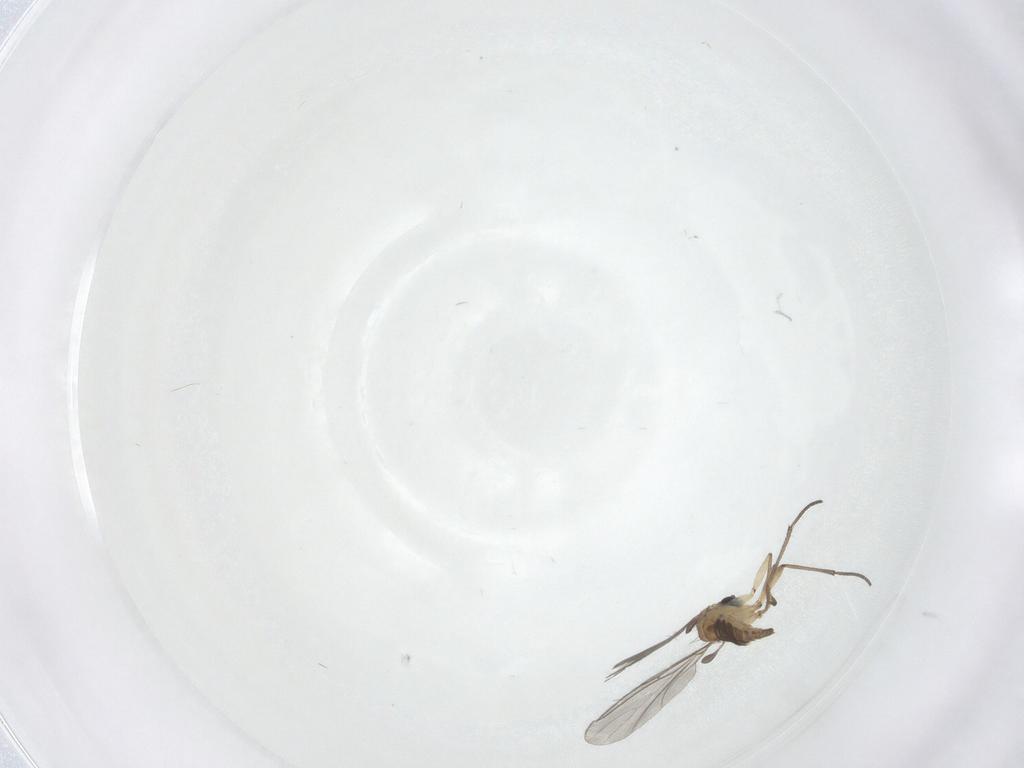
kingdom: Animalia
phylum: Arthropoda
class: Insecta
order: Diptera
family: Sciaridae
